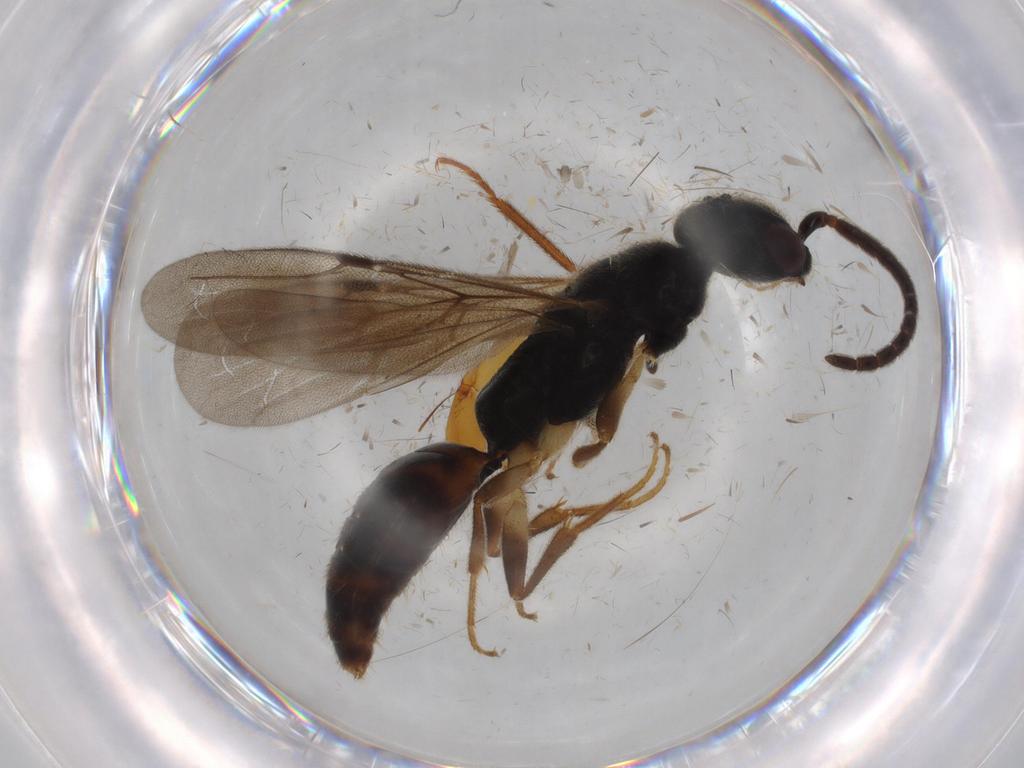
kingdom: Animalia
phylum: Arthropoda
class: Insecta
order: Hymenoptera
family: Bethylidae
